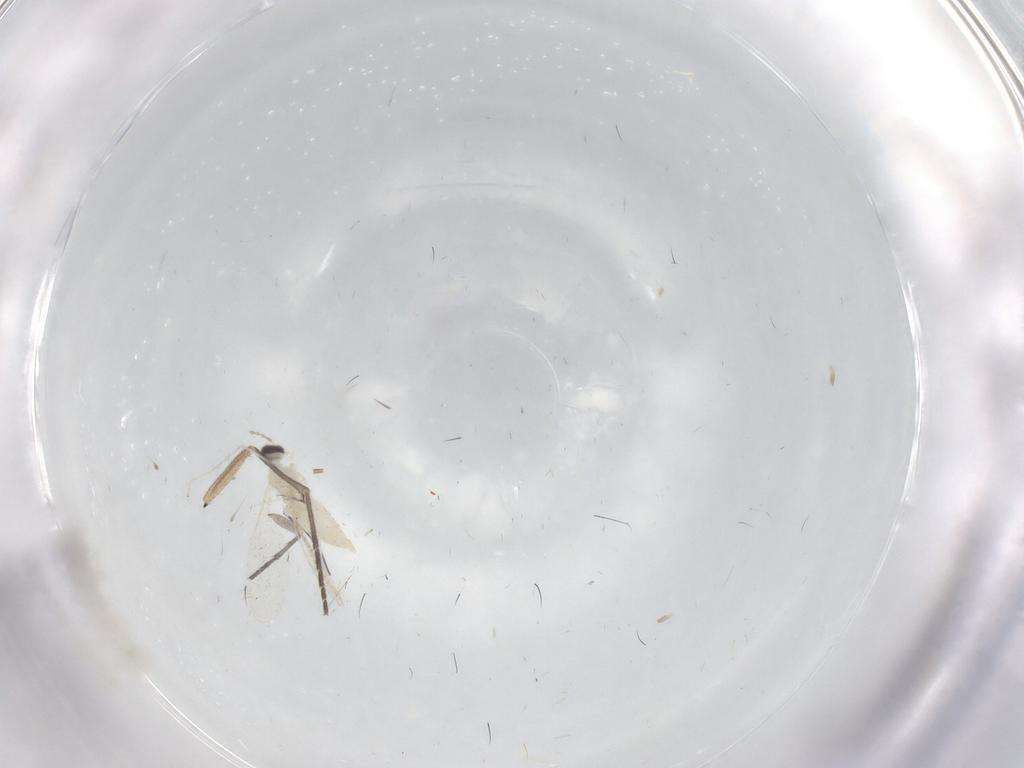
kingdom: Animalia
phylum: Arthropoda
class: Insecta
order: Diptera
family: Cecidomyiidae
